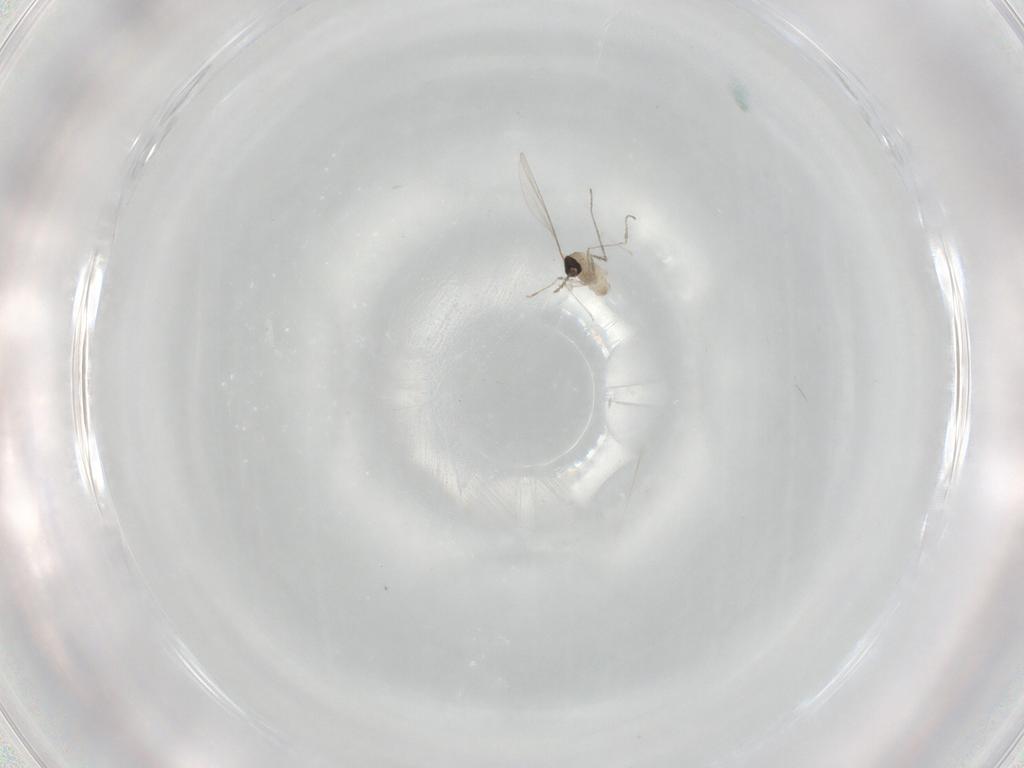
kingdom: Animalia
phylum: Arthropoda
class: Insecta
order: Diptera
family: Cecidomyiidae
